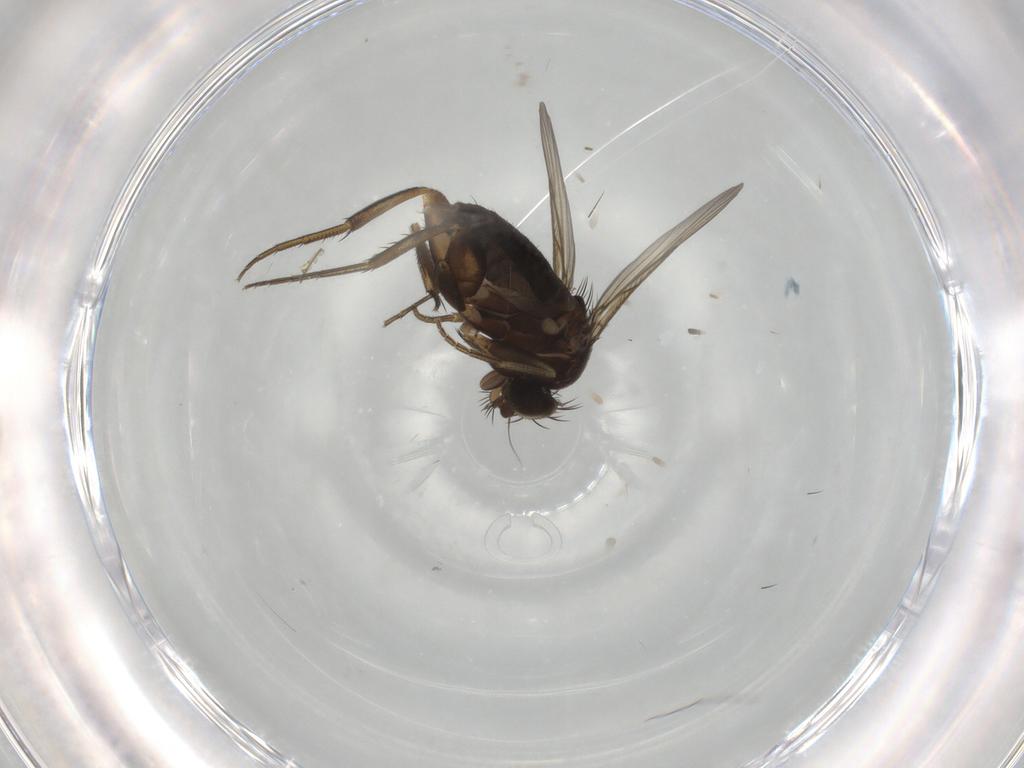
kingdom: Animalia
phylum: Arthropoda
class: Insecta
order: Diptera
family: Phoridae
